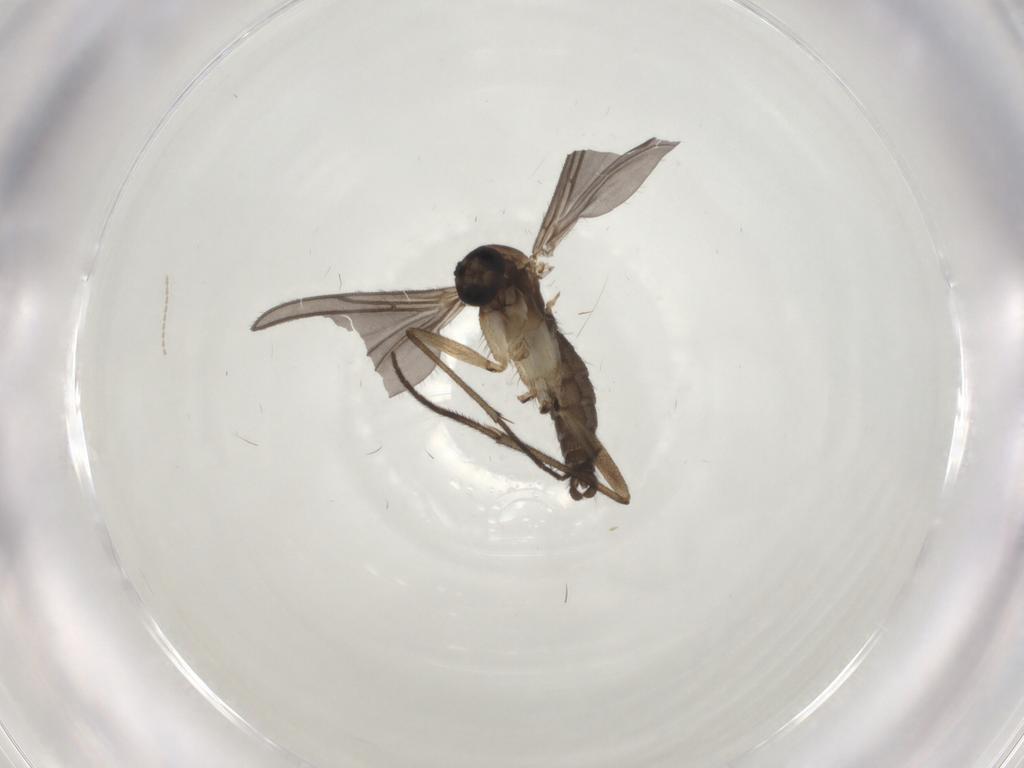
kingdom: Animalia
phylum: Arthropoda
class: Insecta
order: Diptera
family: Sciaridae
